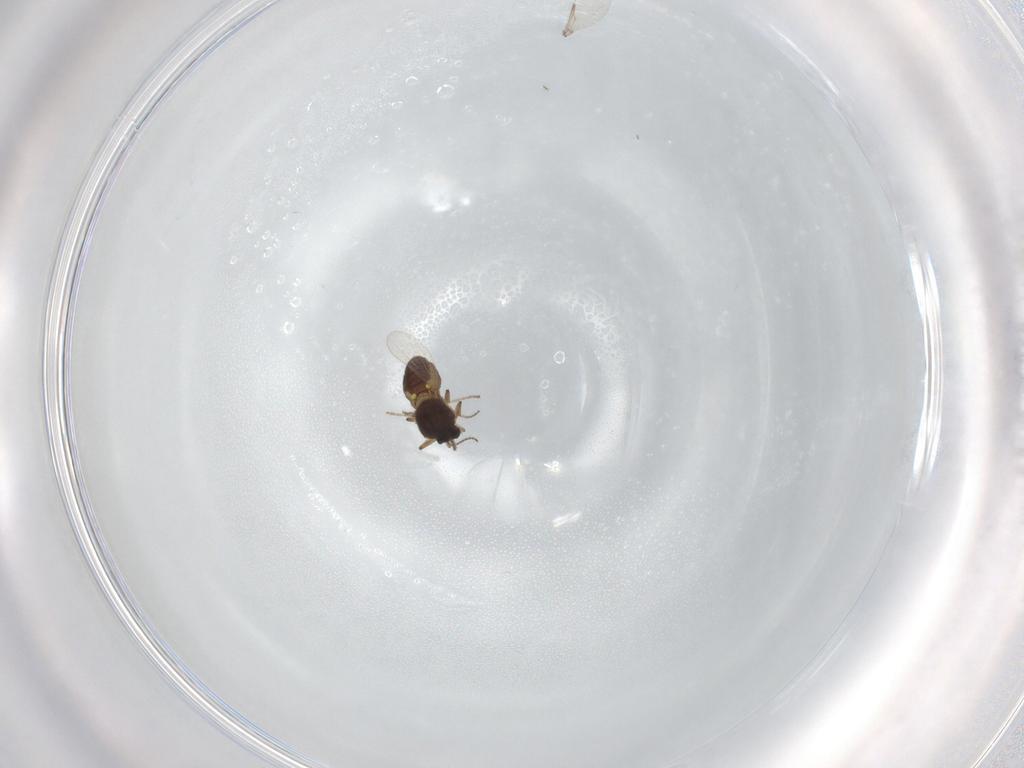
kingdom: Animalia
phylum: Arthropoda
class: Insecta
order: Diptera
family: Ceratopogonidae
